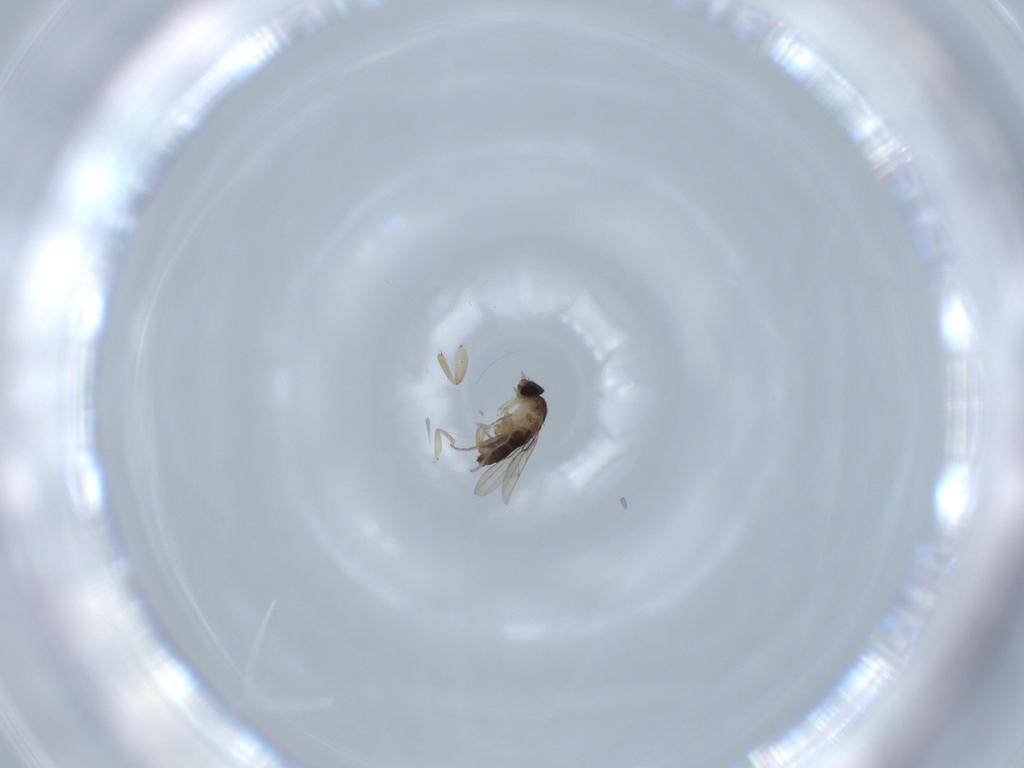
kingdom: Animalia
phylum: Arthropoda
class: Insecta
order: Diptera
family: Phoridae
